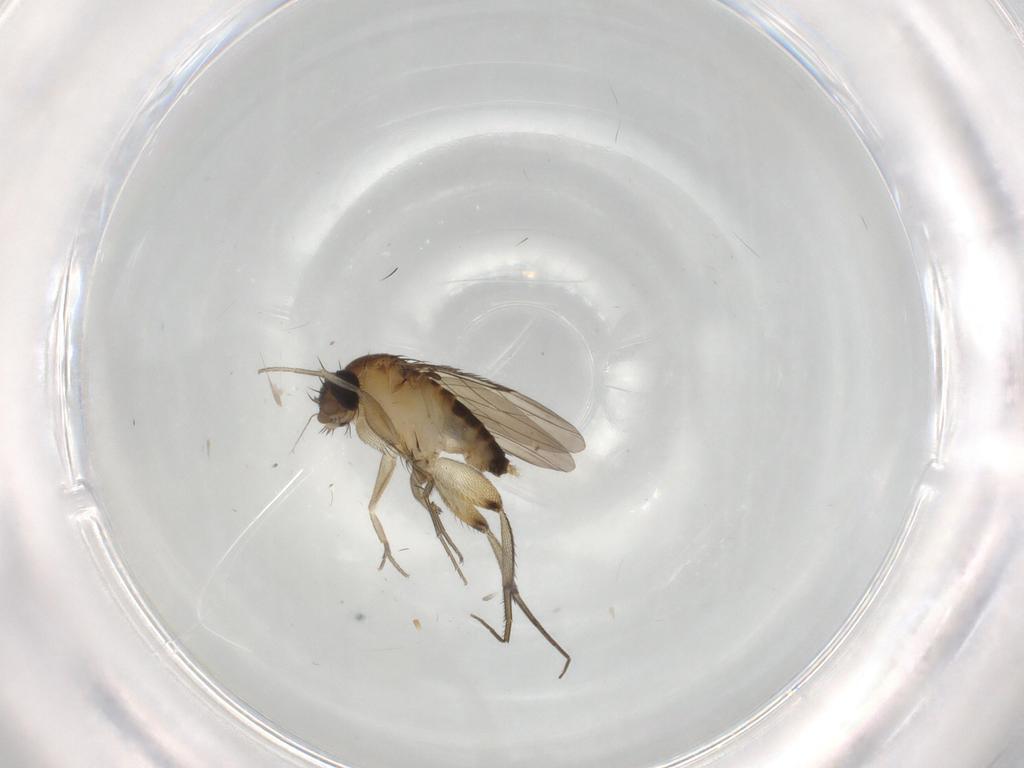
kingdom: Animalia
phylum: Arthropoda
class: Insecta
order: Diptera
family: Phoridae
